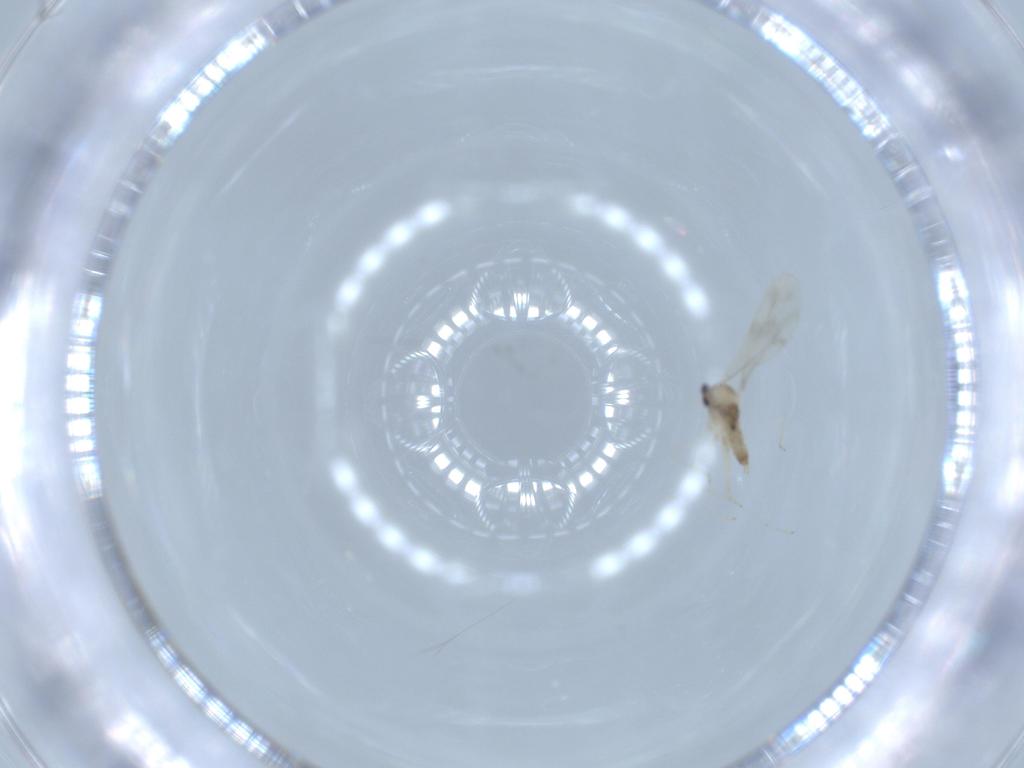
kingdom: Animalia
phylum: Arthropoda
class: Insecta
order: Diptera
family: Cecidomyiidae
